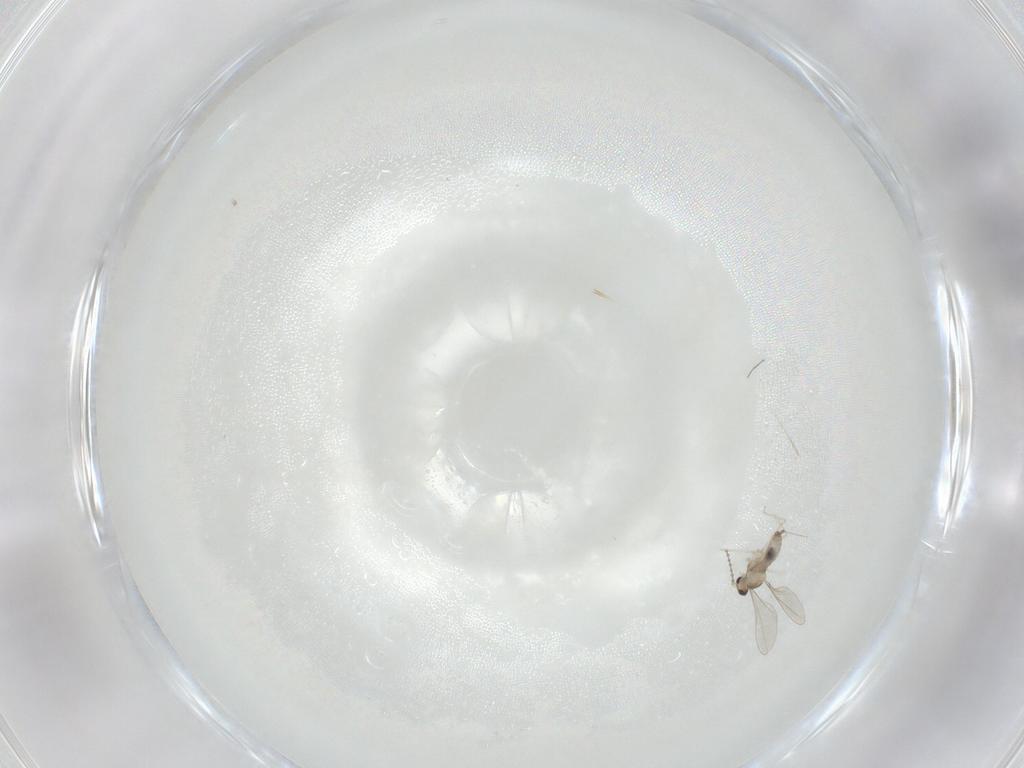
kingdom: Animalia
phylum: Arthropoda
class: Insecta
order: Diptera
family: Cecidomyiidae
